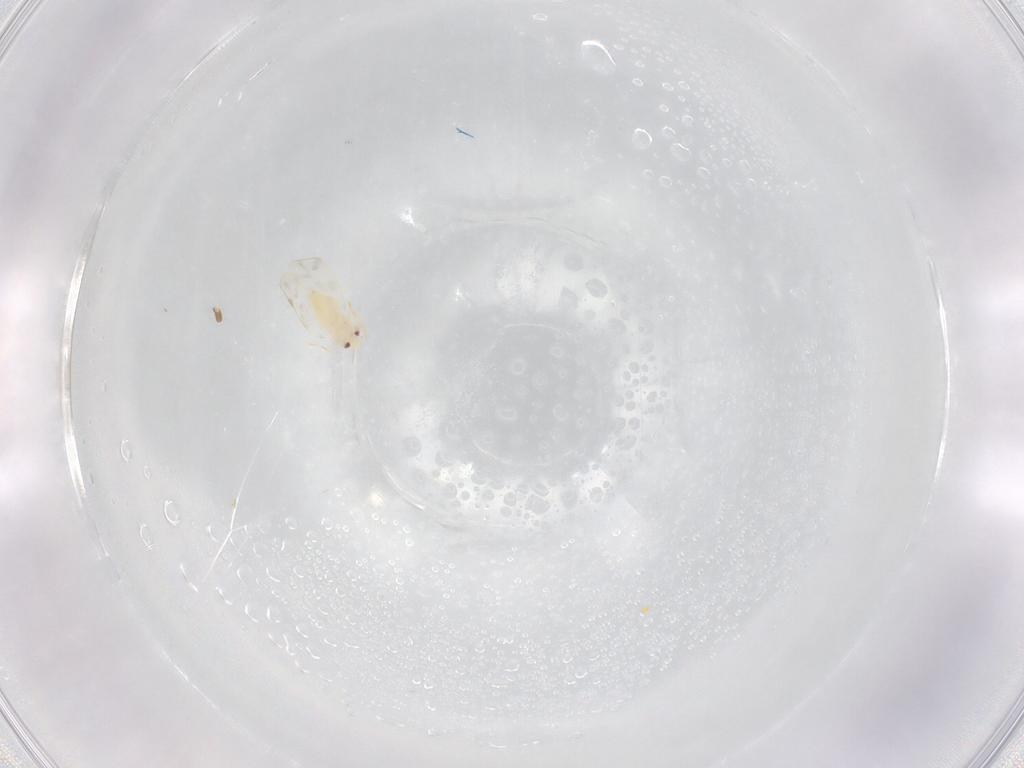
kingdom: Animalia
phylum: Arthropoda
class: Insecta
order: Hemiptera
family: Aleyrodidae
